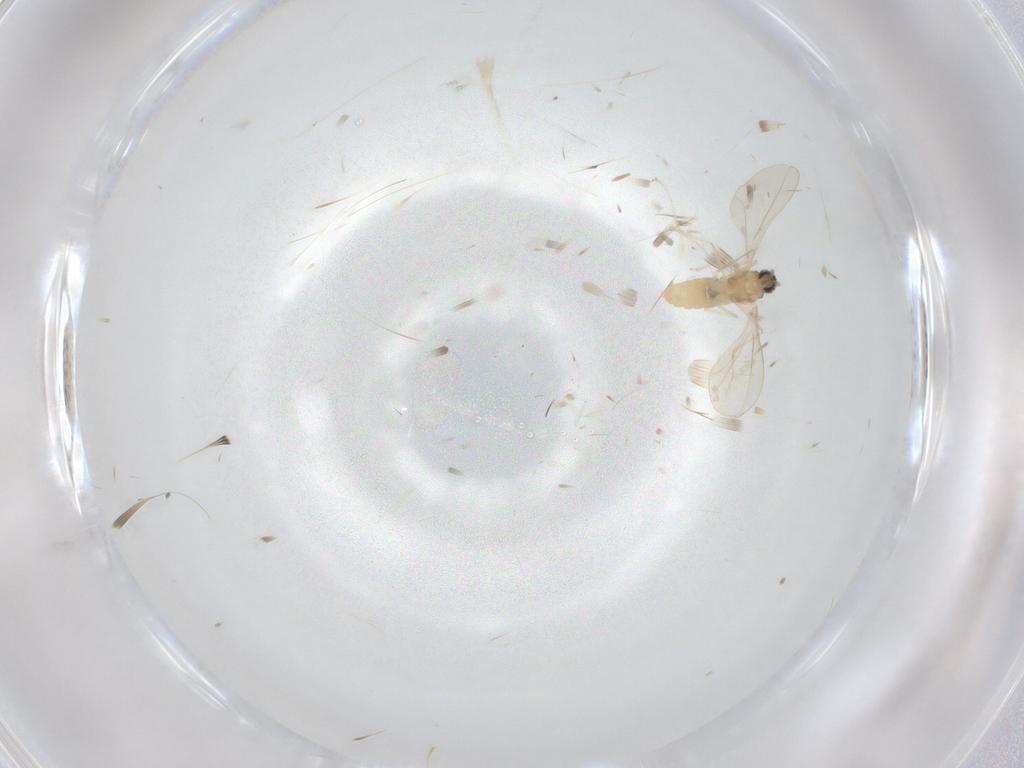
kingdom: Animalia
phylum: Arthropoda
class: Insecta
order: Diptera
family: Cecidomyiidae
